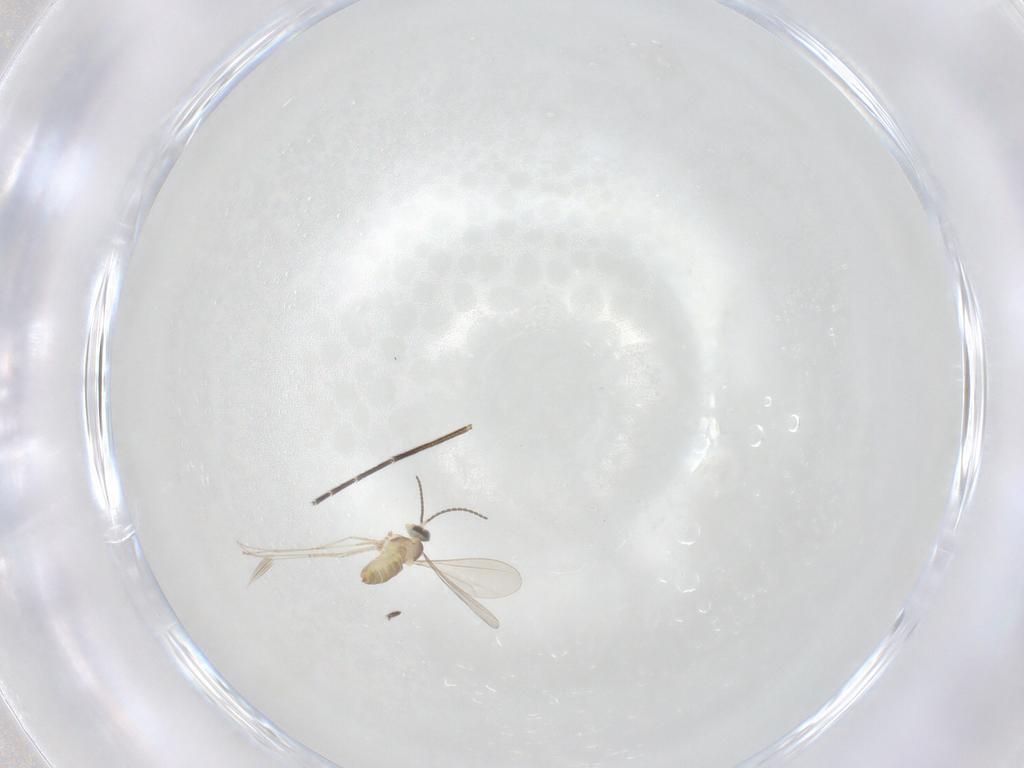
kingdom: Animalia
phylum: Arthropoda
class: Insecta
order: Diptera
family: Cecidomyiidae
